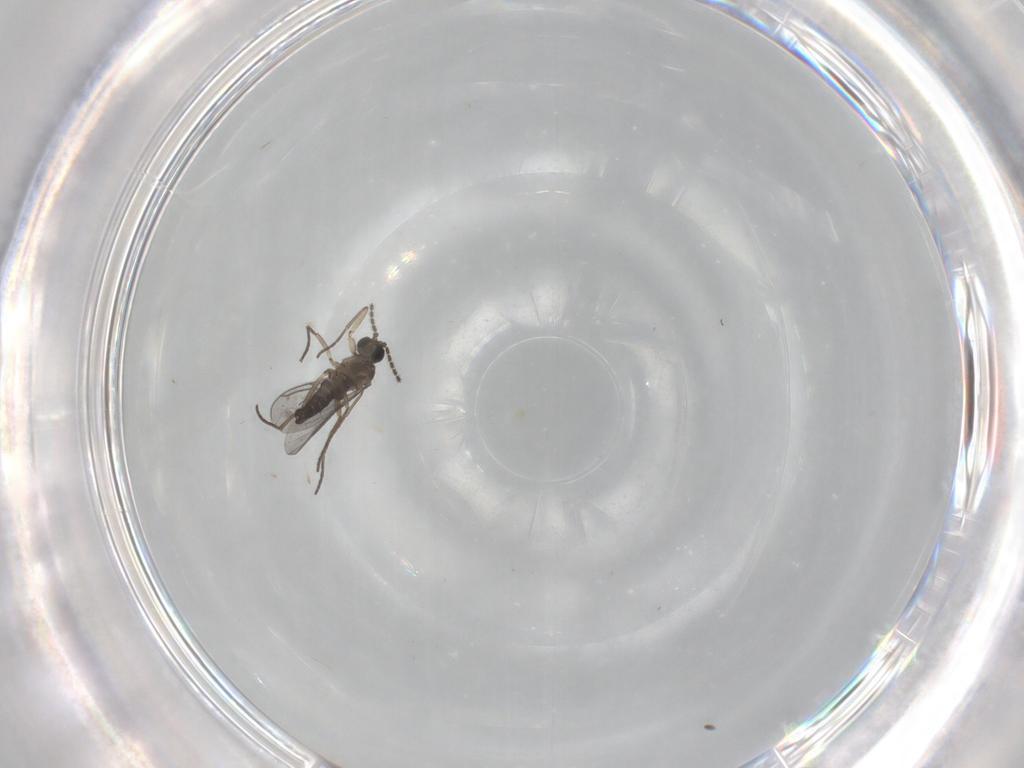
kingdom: Animalia
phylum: Arthropoda
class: Insecta
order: Diptera
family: Sciaridae
